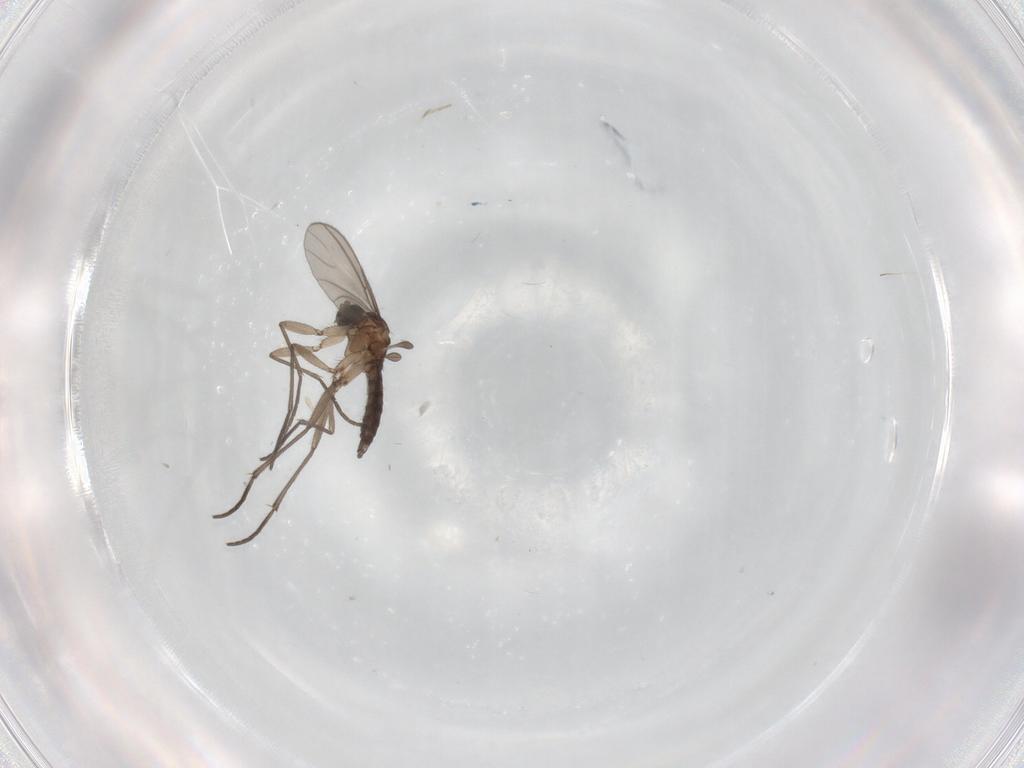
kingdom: Animalia
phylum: Arthropoda
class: Insecta
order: Diptera
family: Sciaridae
